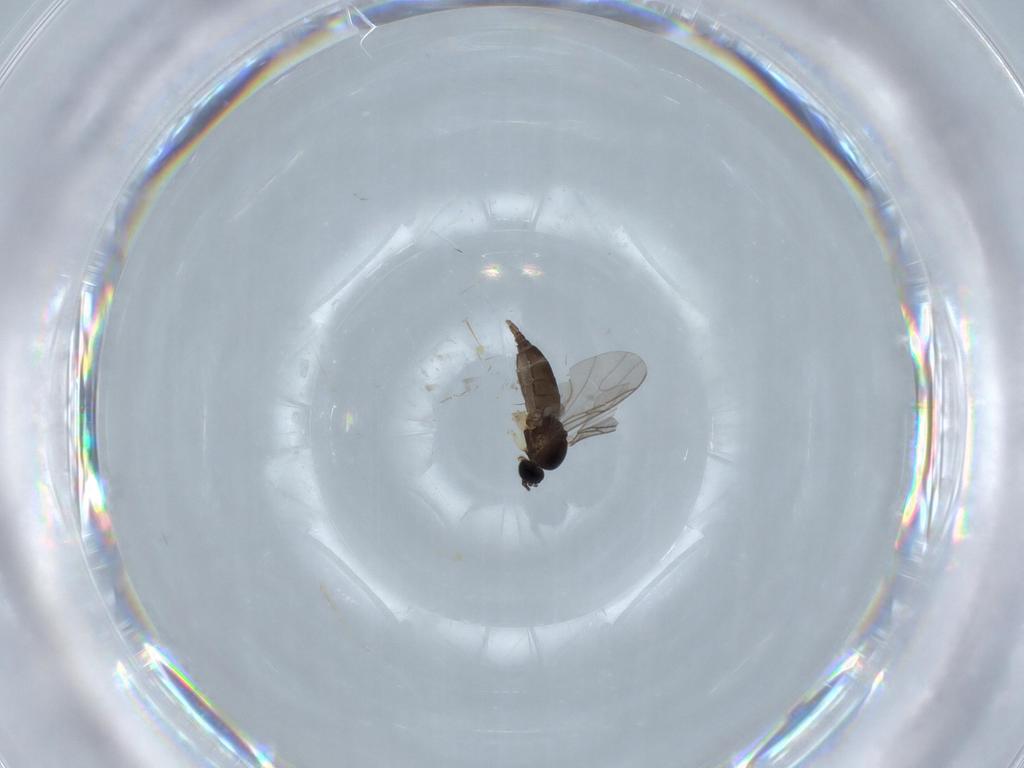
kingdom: Animalia
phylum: Arthropoda
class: Insecta
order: Diptera
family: Sciaridae
